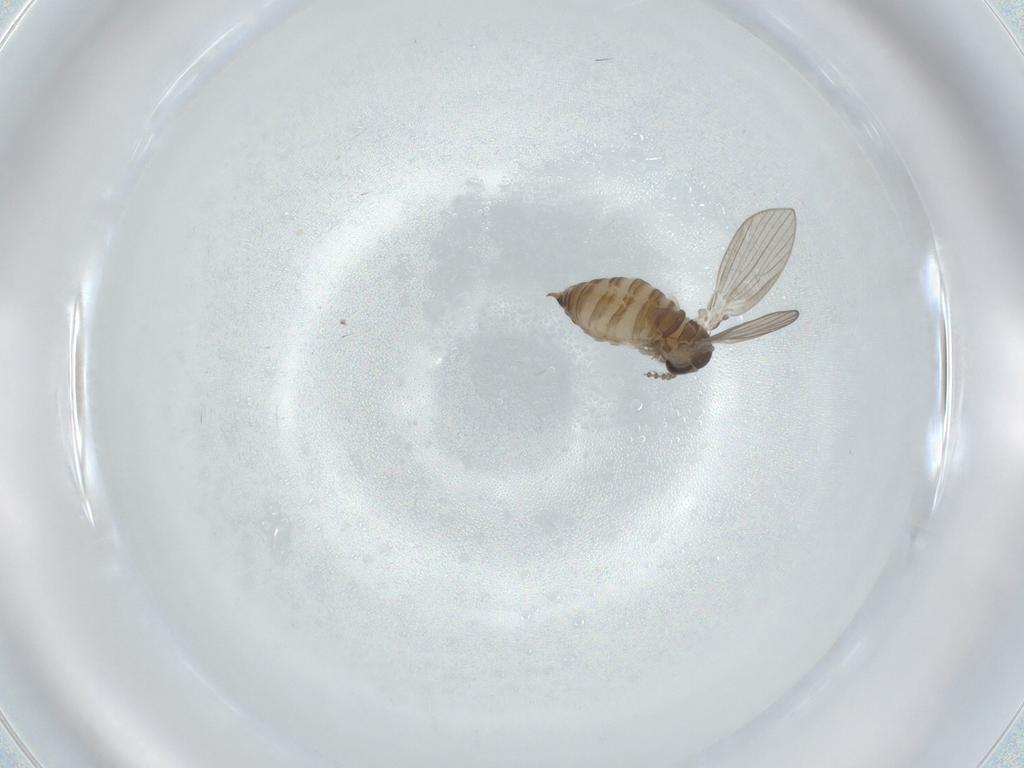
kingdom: Animalia
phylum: Arthropoda
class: Insecta
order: Diptera
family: Psychodidae
